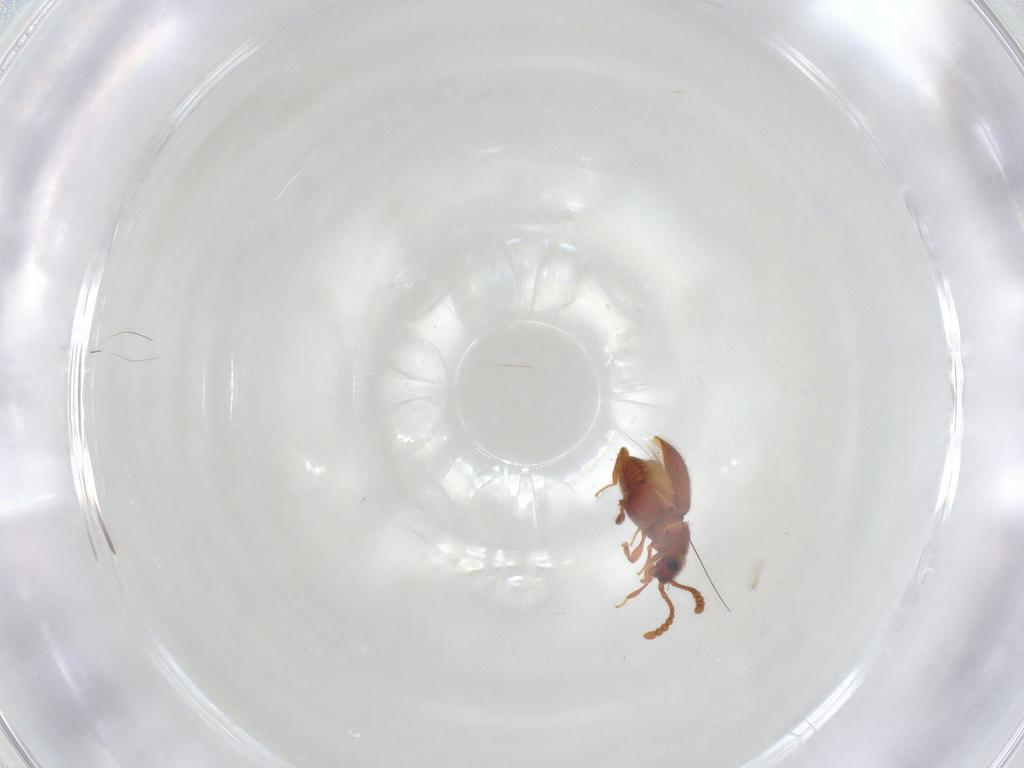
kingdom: Animalia
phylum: Arthropoda
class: Insecta
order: Coleoptera
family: Staphylinidae
